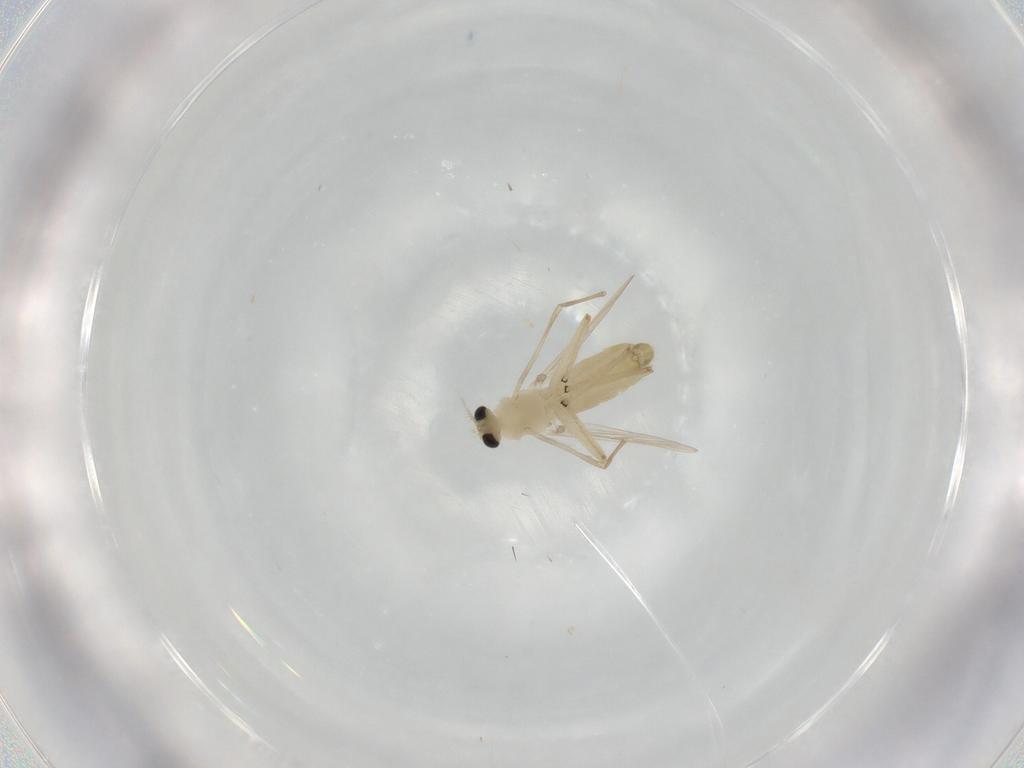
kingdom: Animalia
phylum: Arthropoda
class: Insecta
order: Diptera
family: Chironomidae
